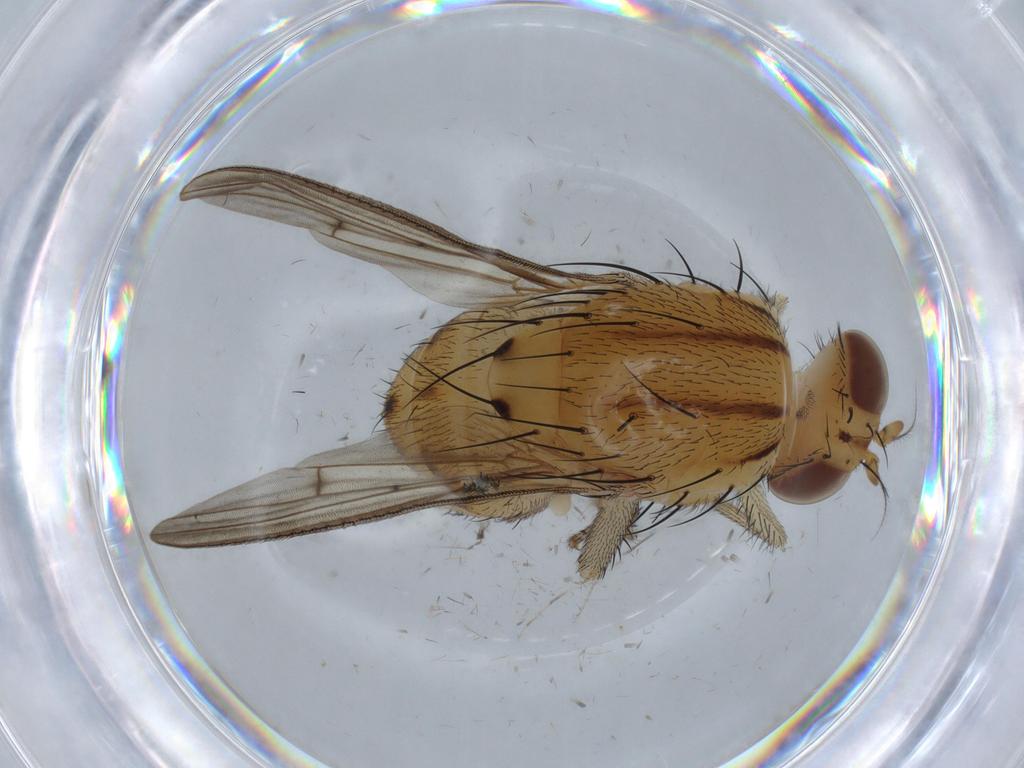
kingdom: Animalia
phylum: Arthropoda
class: Insecta
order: Diptera
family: Lauxaniidae
